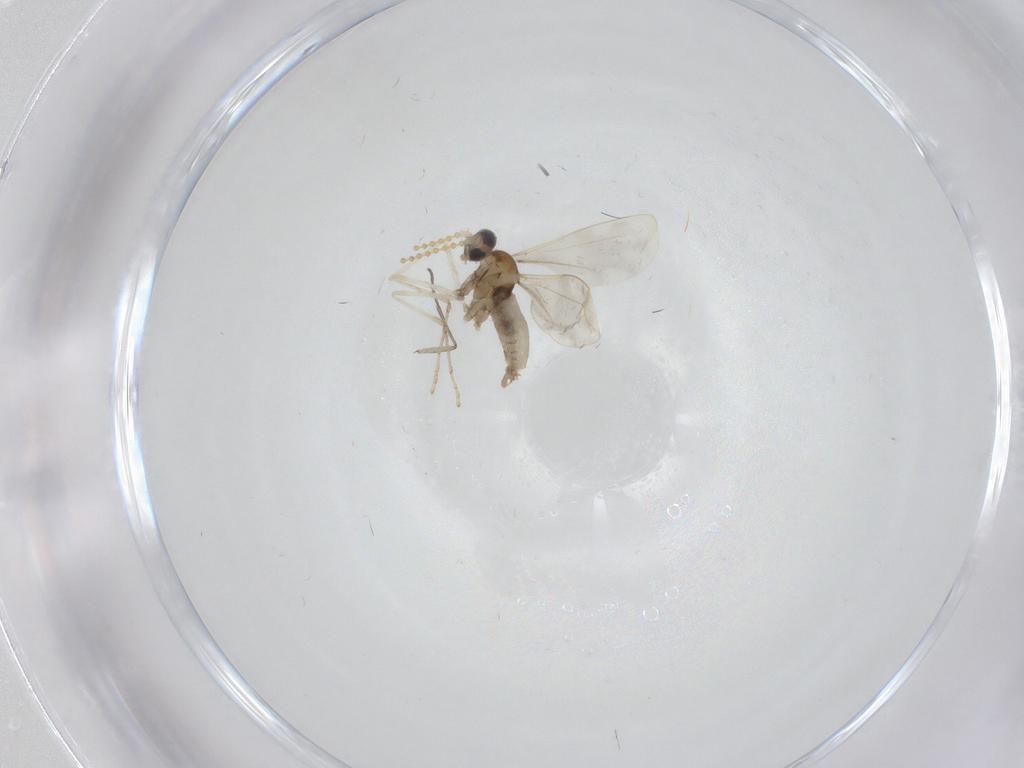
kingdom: Animalia
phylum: Arthropoda
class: Insecta
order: Diptera
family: Cecidomyiidae
